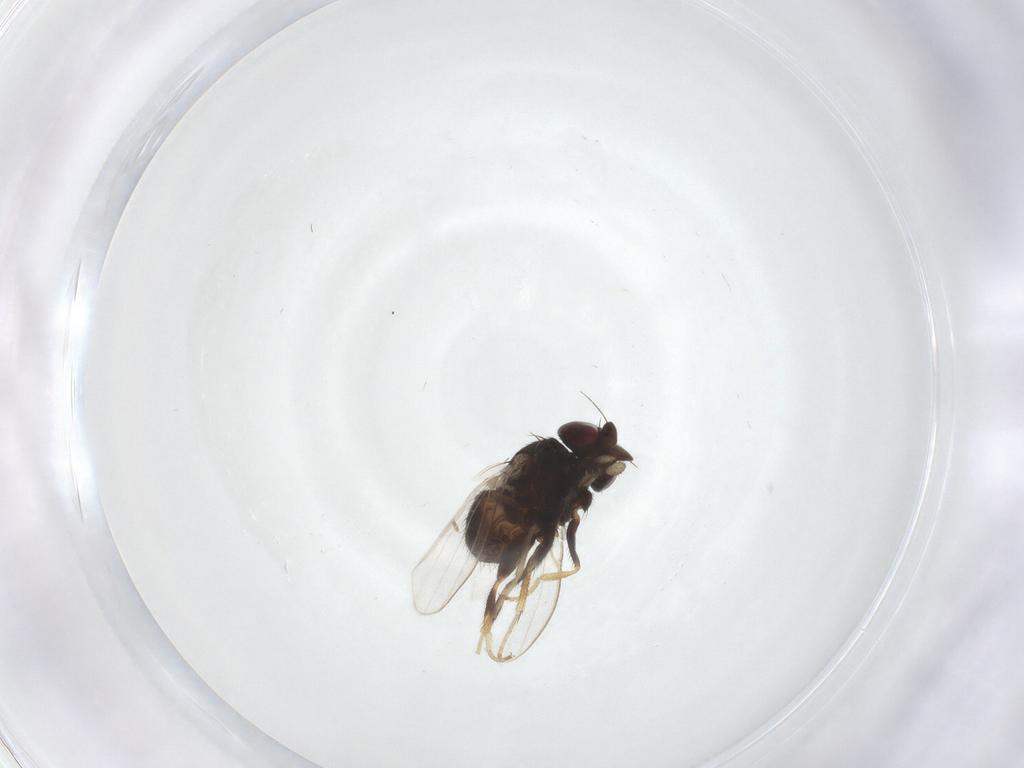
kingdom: Animalia
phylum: Arthropoda
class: Insecta
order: Diptera
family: Milichiidae
